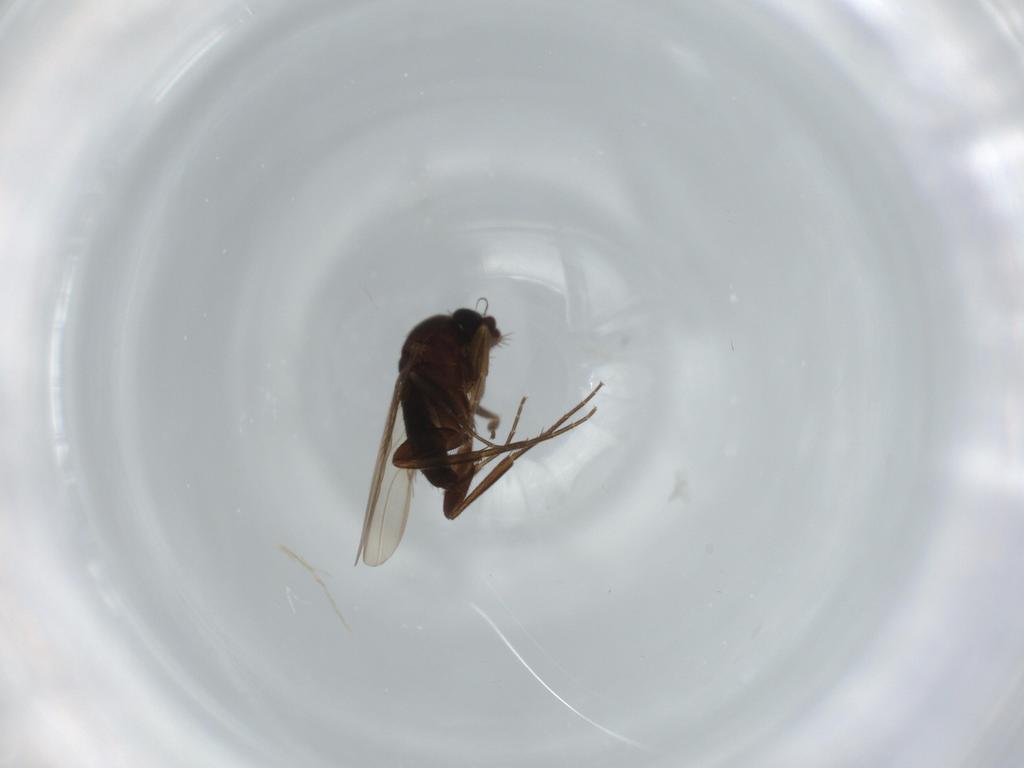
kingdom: Animalia
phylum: Arthropoda
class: Insecta
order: Diptera
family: Phoridae
